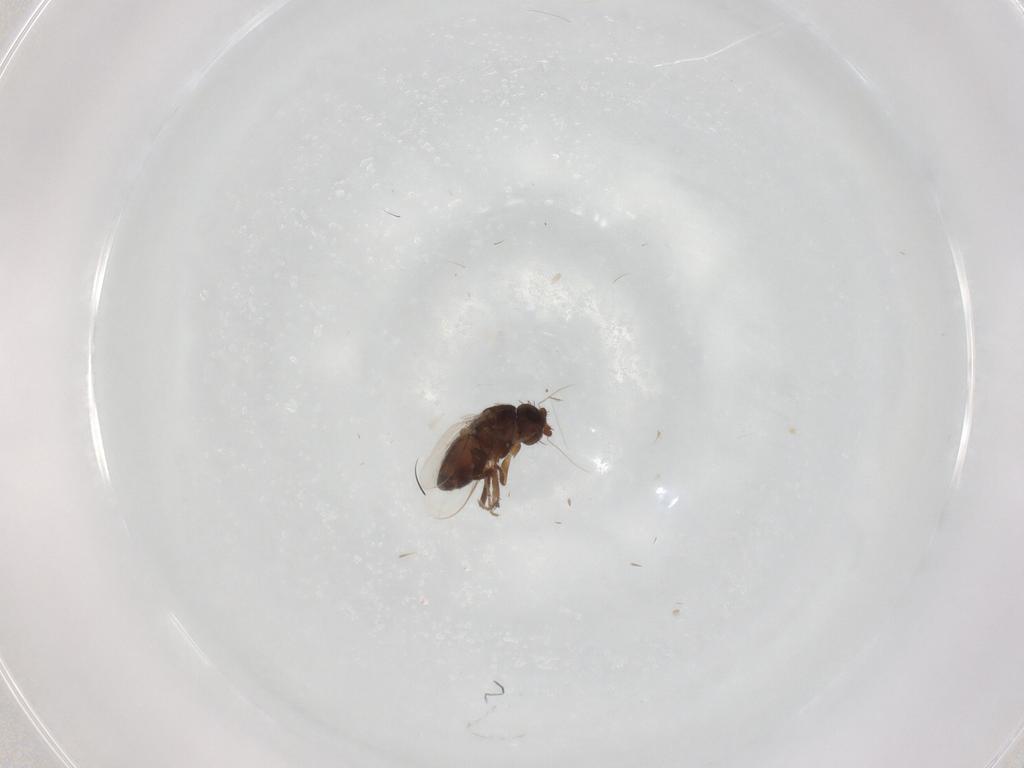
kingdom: Animalia
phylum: Arthropoda
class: Insecta
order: Diptera
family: Sphaeroceridae
